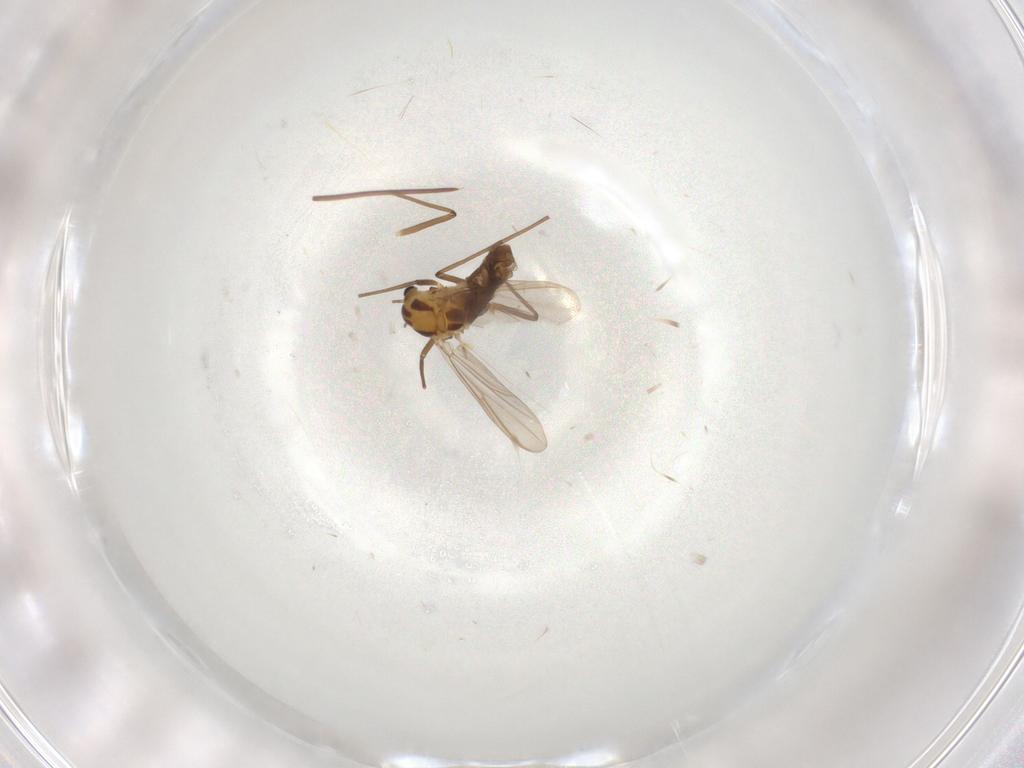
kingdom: Animalia
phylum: Arthropoda
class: Insecta
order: Diptera
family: Chironomidae
